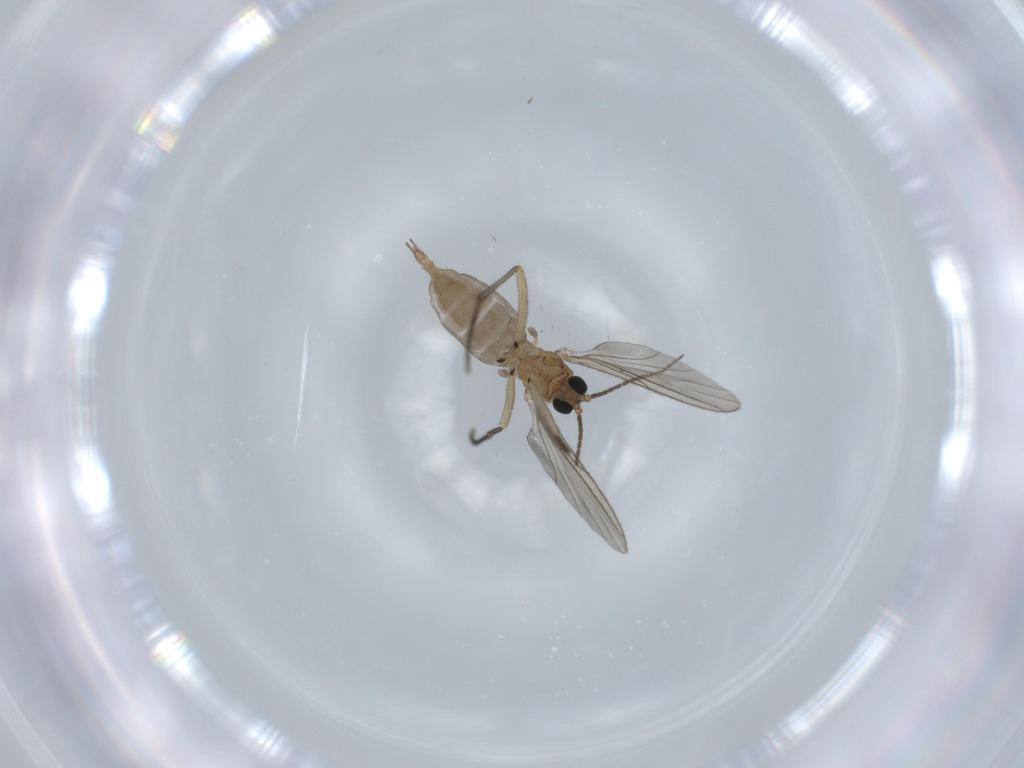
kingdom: Animalia
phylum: Arthropoda
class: Insecta
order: Diptera
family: Sciaridae
